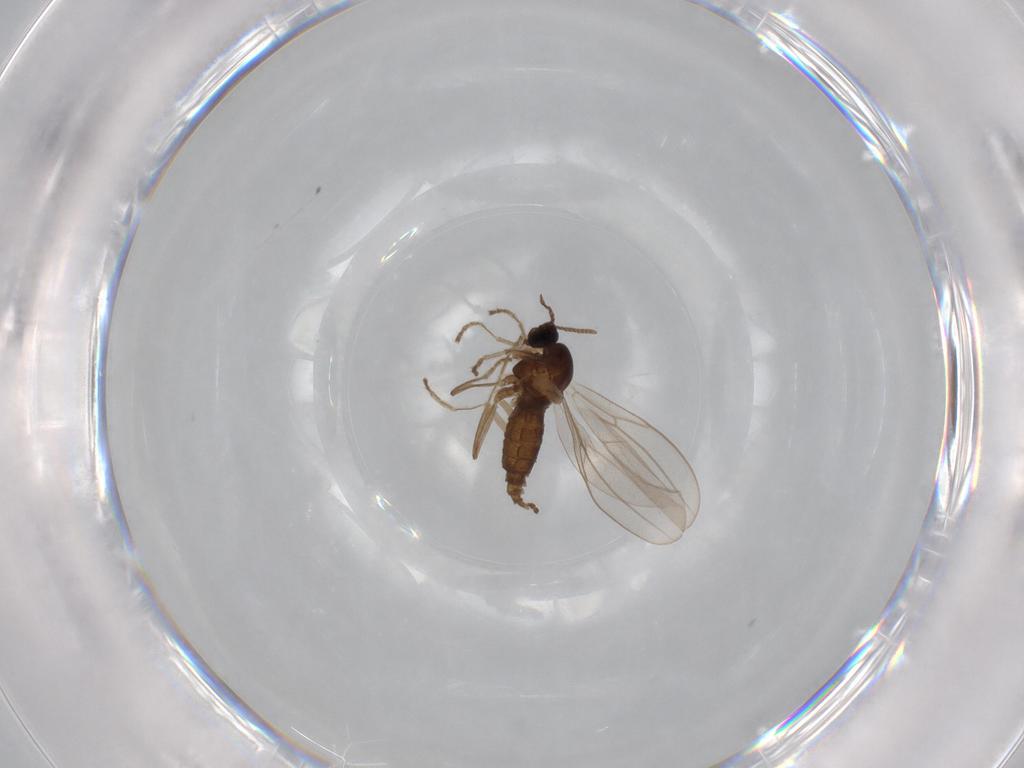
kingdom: Animalia
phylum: Arthropoda
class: Insecta
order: Diptera
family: Cecidomyiidae
